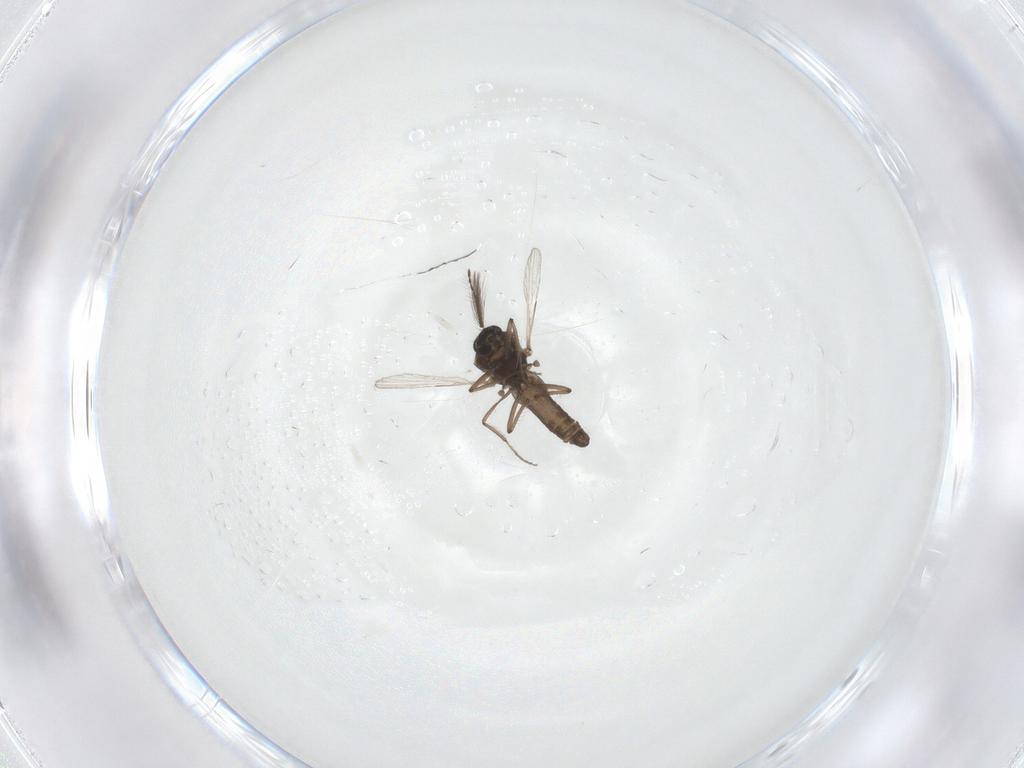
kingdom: Animalia
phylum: Arthropoda
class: Insecta
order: Diptera
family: Ceratopogonidae
